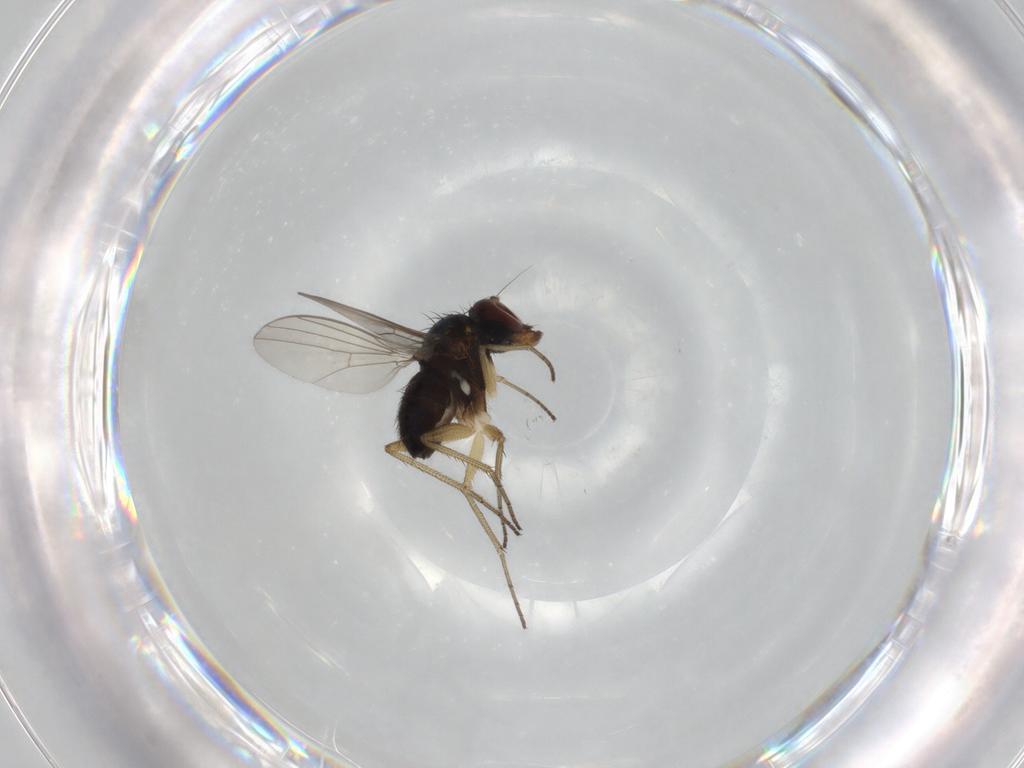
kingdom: Animalia
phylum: Arthropoda
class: Insecta
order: Diptera
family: Dolichopodidae
